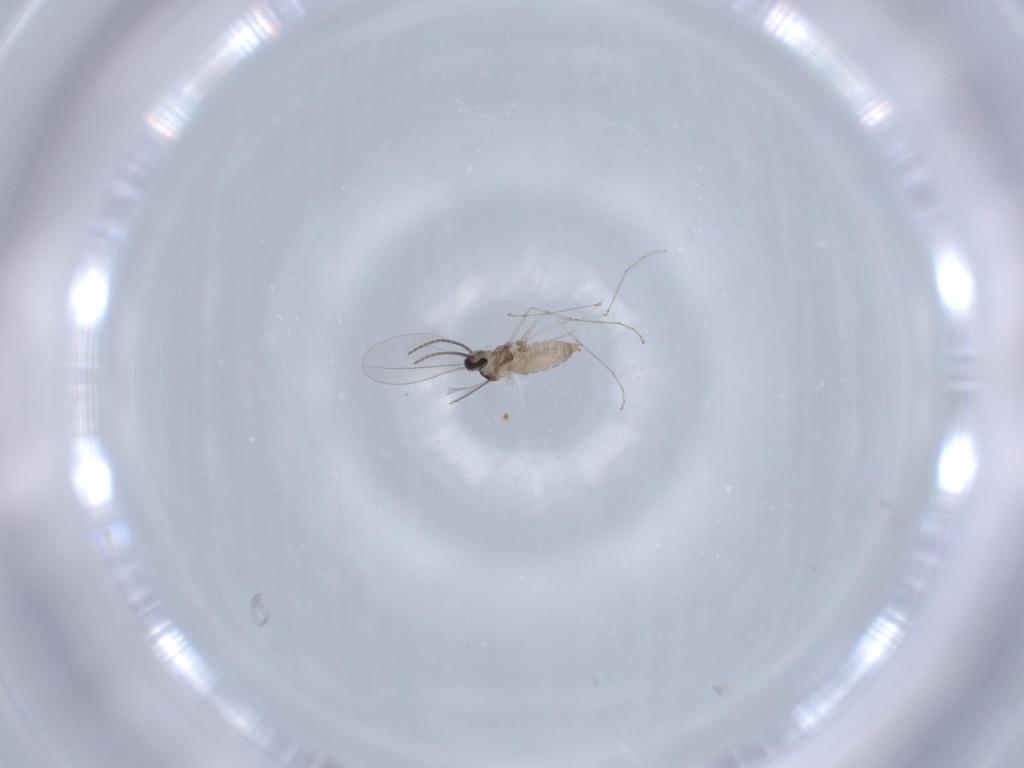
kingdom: Animalia
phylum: Arthropoda
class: Insecta
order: Diptera
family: Cecidomyiidae
